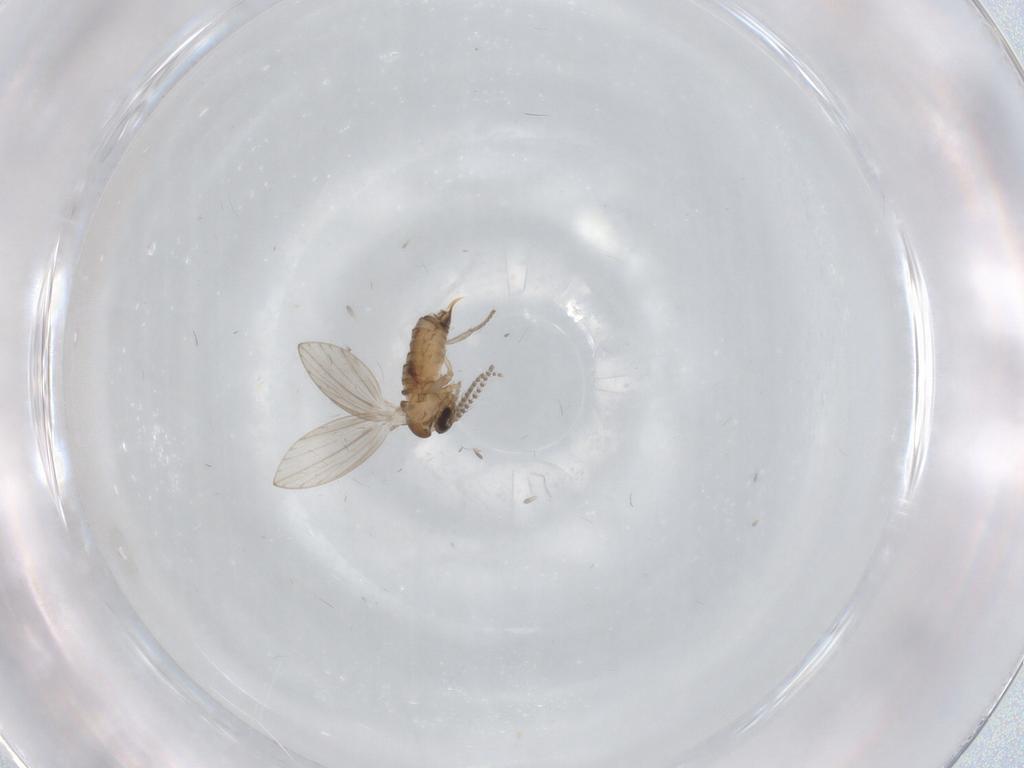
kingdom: Animalia
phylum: Arthropoda
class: Insecta
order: Diptera
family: Psychodidae
